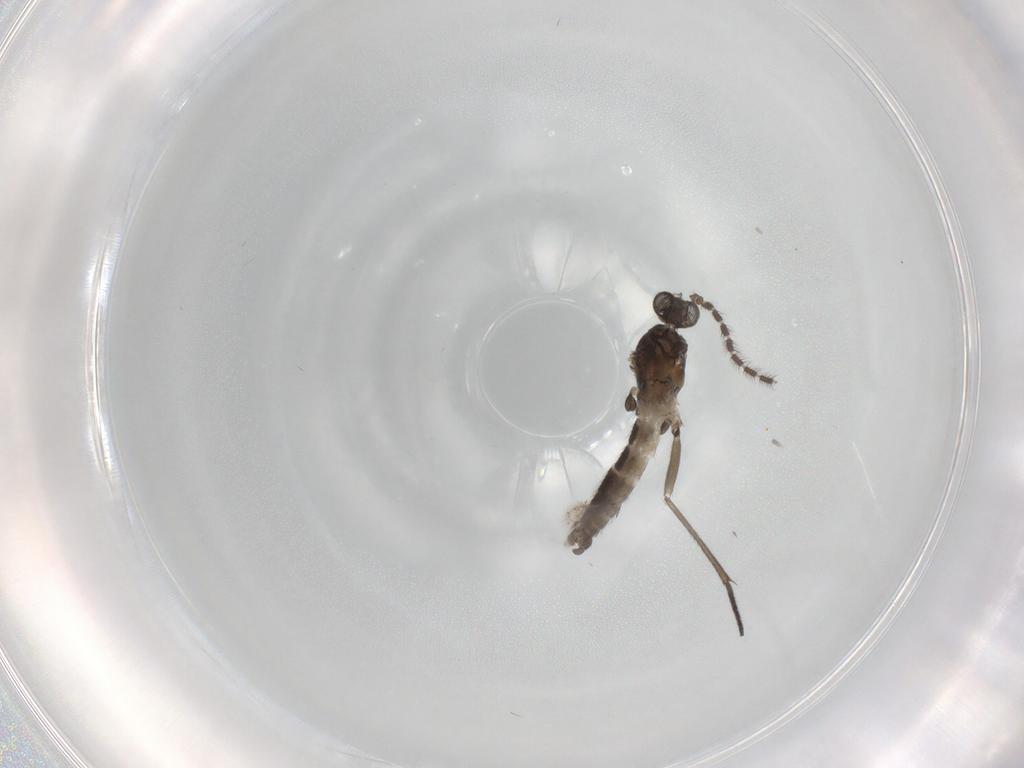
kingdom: Animalia
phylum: Arthropoda
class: Insecta
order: Diptera
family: Sciaridae
